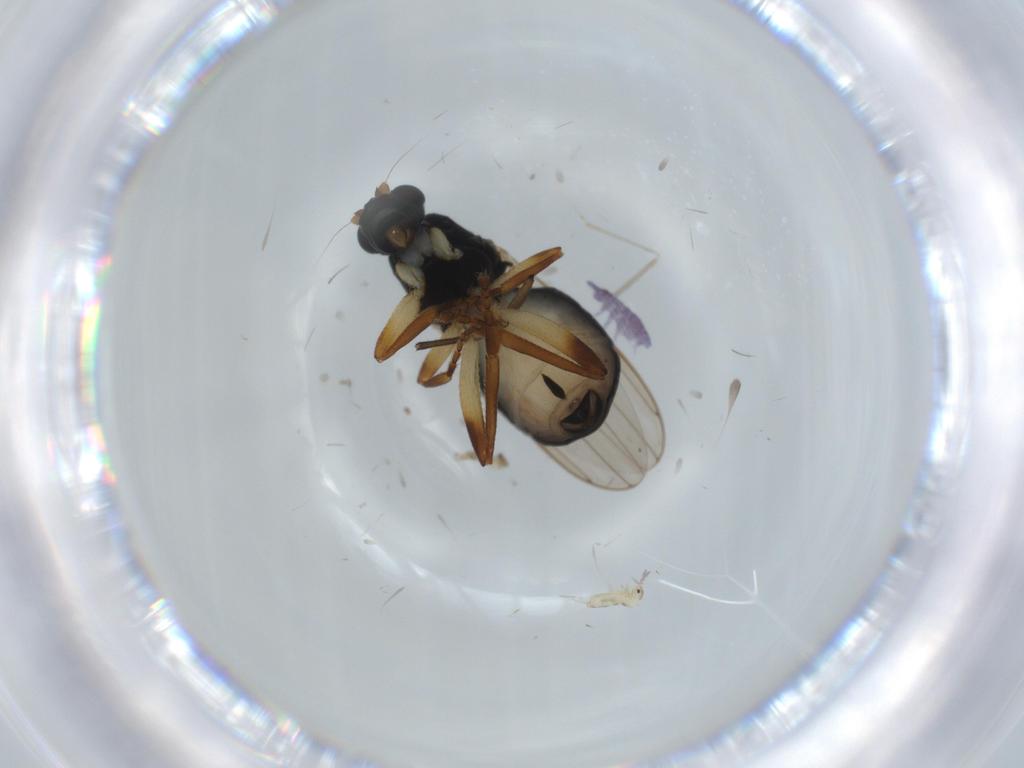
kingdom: Animalia
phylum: Arthropoda
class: Insecta
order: Diptera
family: Sphaeroceridae
